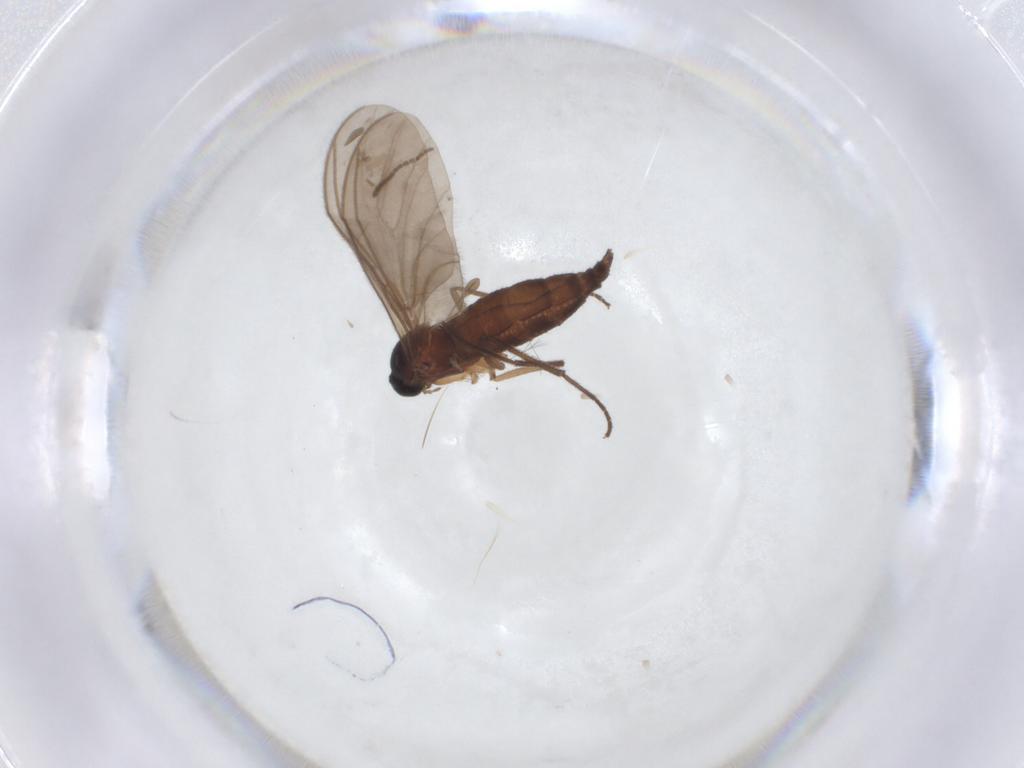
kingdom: Animalia
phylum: Arthropoda
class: Insecta
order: Diptera
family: Sciaridae
